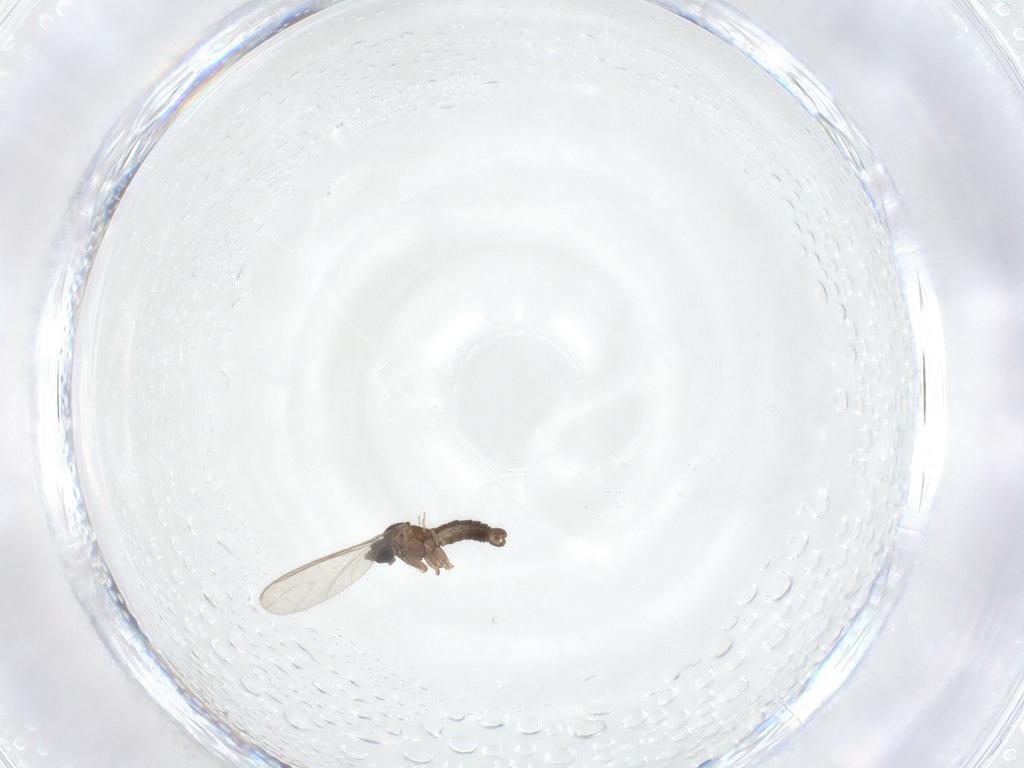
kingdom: Animalia
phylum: Arthropoda
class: Insecta
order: Diptera
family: Sciaridae
